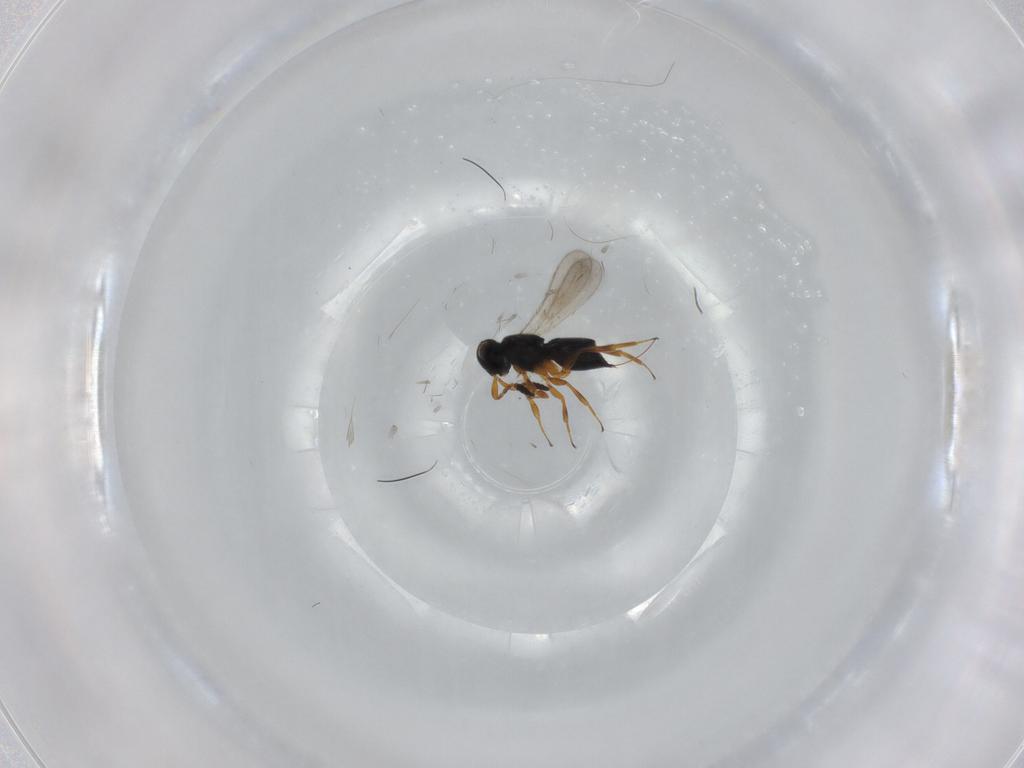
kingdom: Animalia
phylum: Arthropoda
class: Insecta
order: Hymenoptera
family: Scelionidae
